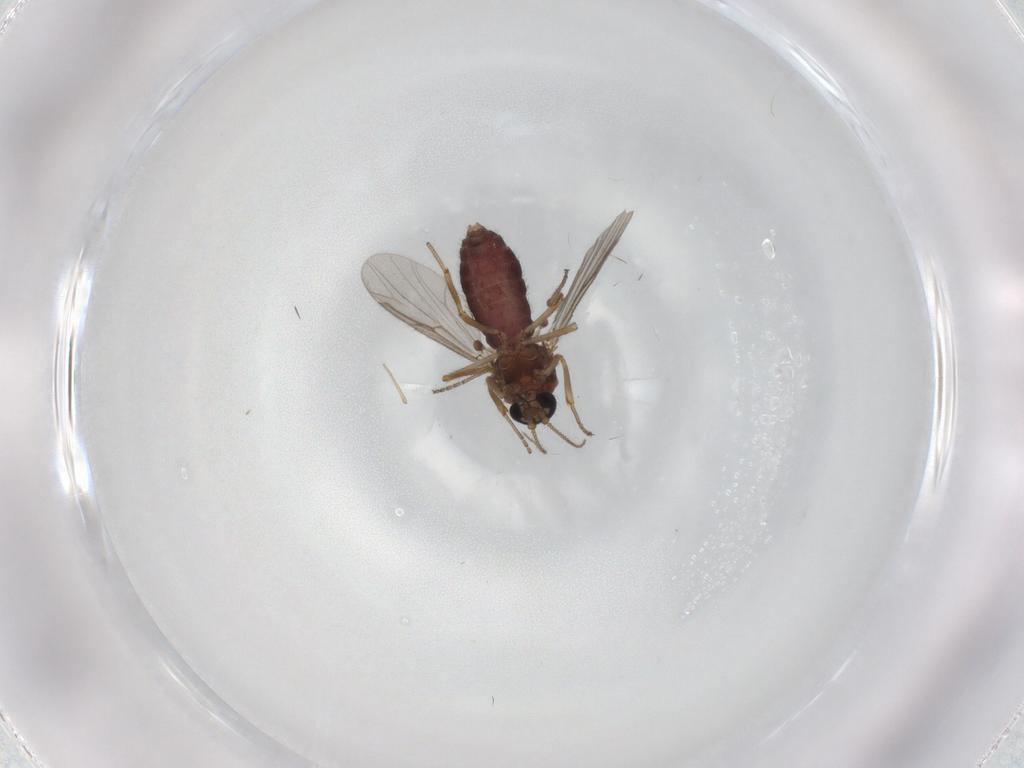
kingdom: Animalia
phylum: Arthropoda
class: Insecta
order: Diptera
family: Ceratopogonidae
